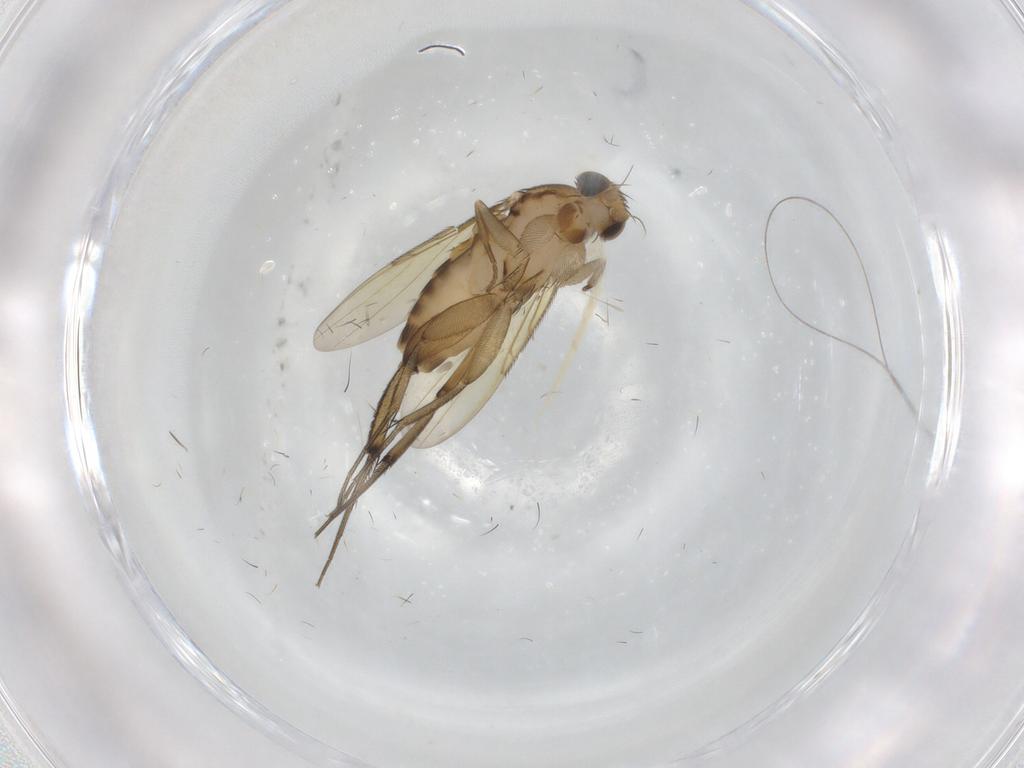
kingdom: Animalia
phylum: Arthropoda
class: Insecta
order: Diptera
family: Phoridae
